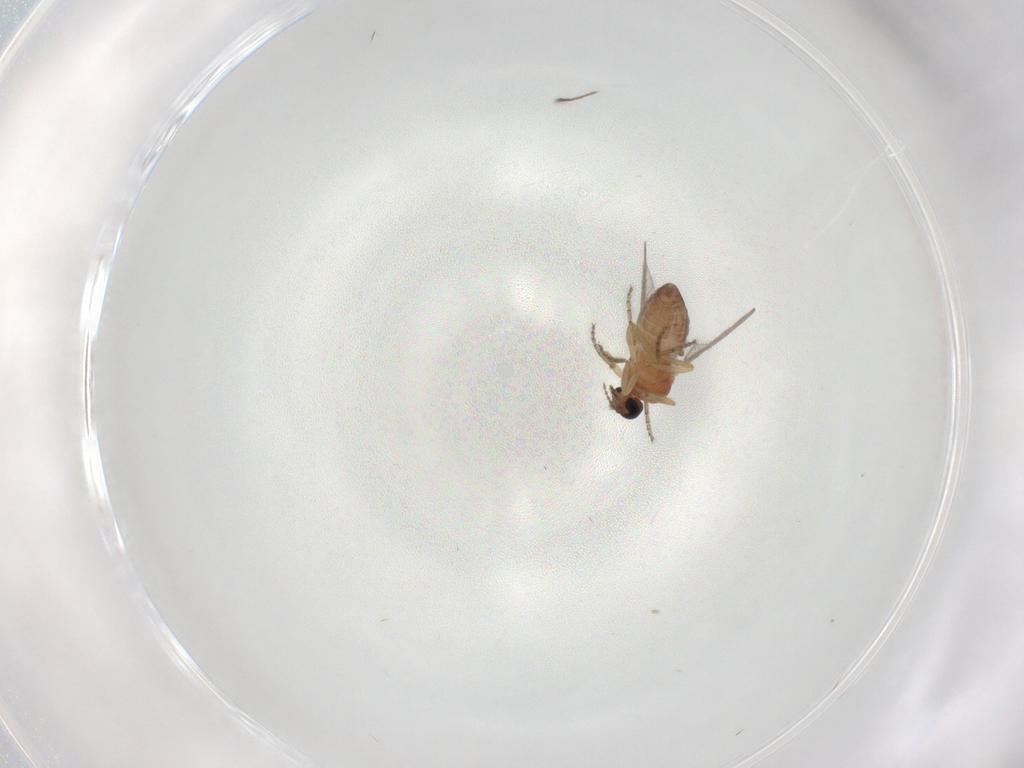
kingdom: Animalia
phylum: Arthropoda
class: Insecta
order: Diptera
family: Ceratopogonidae
